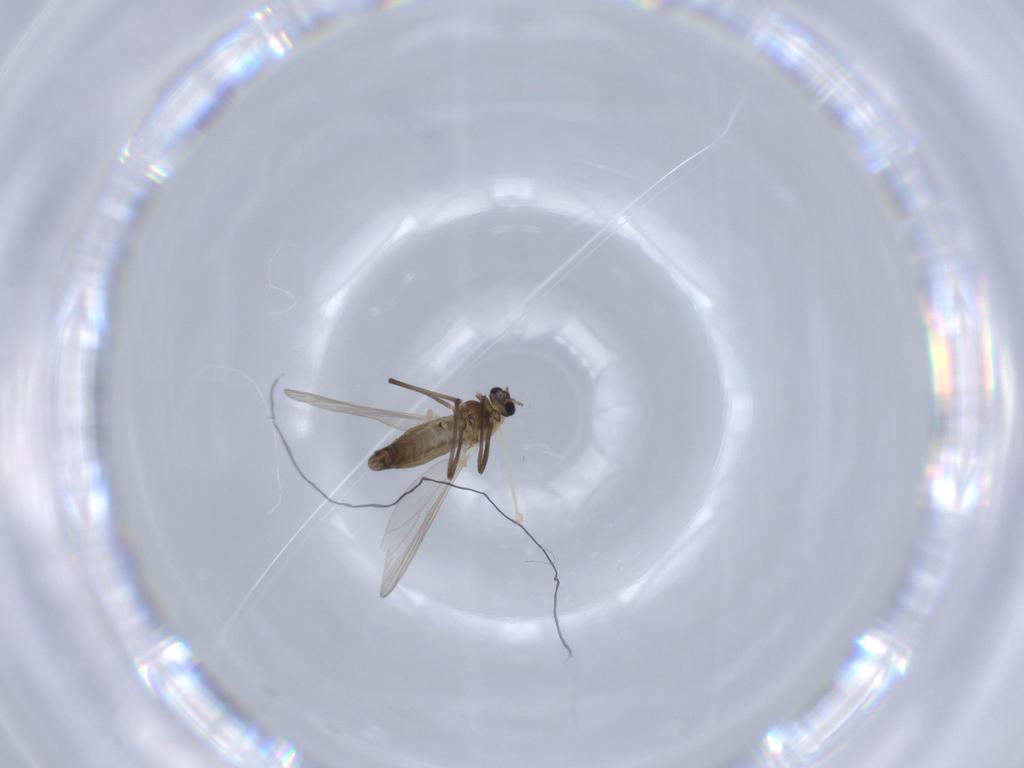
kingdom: Animalia
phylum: Arthropoda
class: Insecta
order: Diptera
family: Chironomidae
